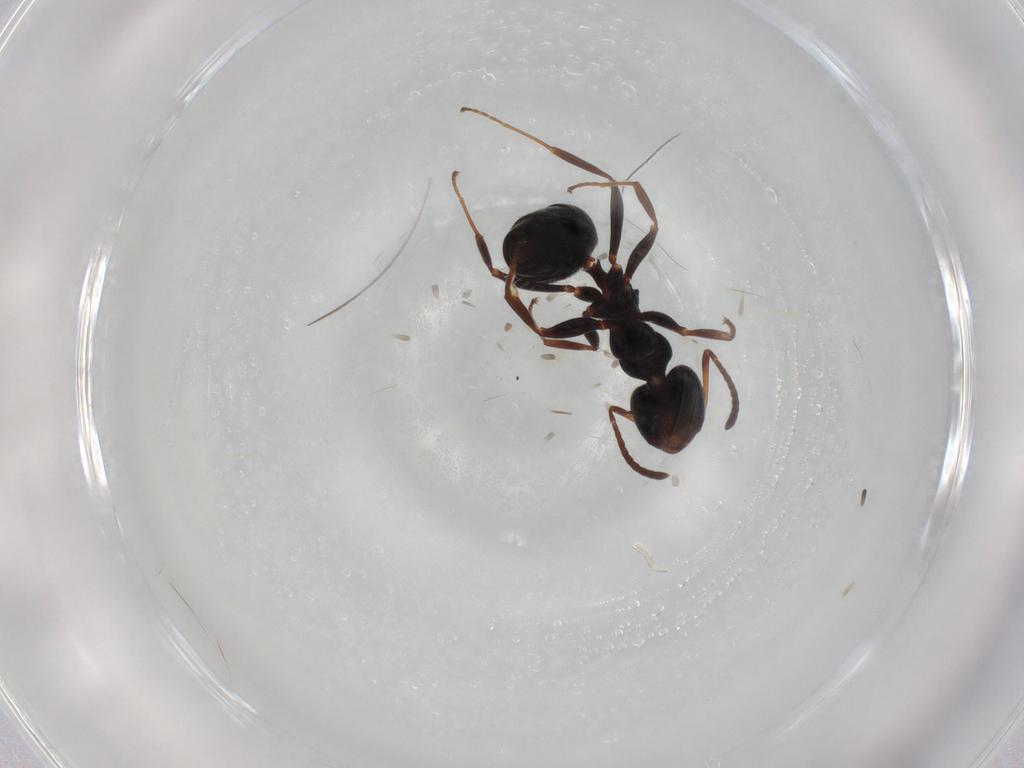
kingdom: Animalia
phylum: Arthropoda
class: Insecta
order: Hymenoptera
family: Formicidae
